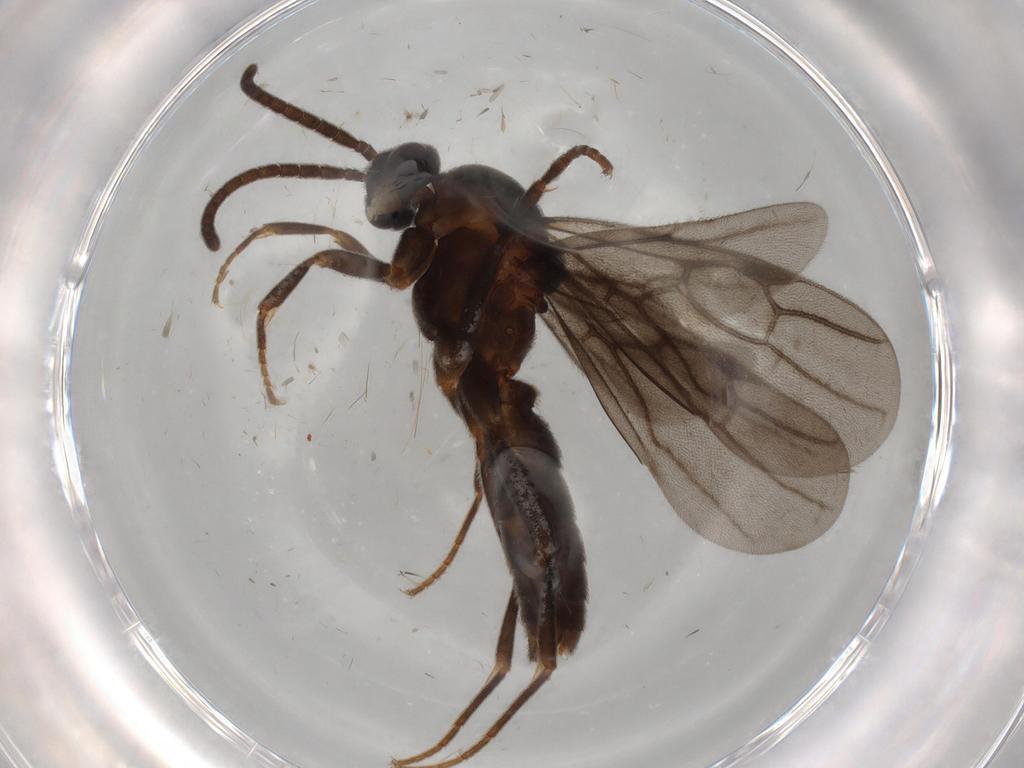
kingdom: Animalia
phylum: Arthropoda
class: Insecta
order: Hymenoptera
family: Formicidae
